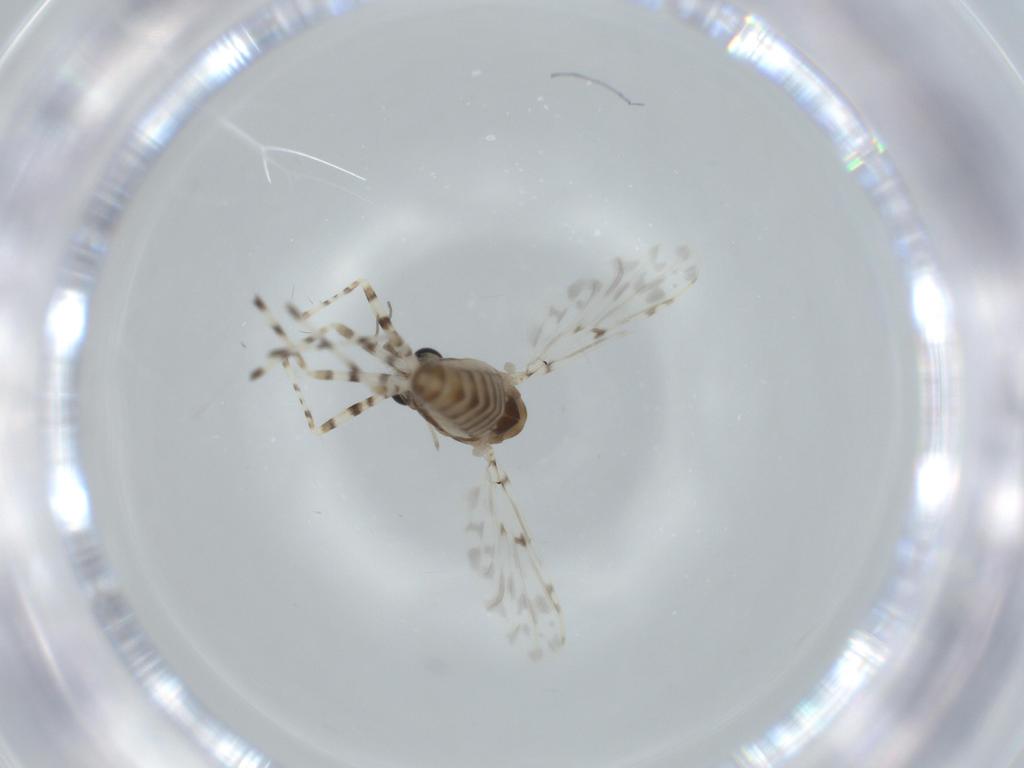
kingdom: Animalia
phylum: Arthropoda
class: Insecta
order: Diptera
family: Chironomidae
